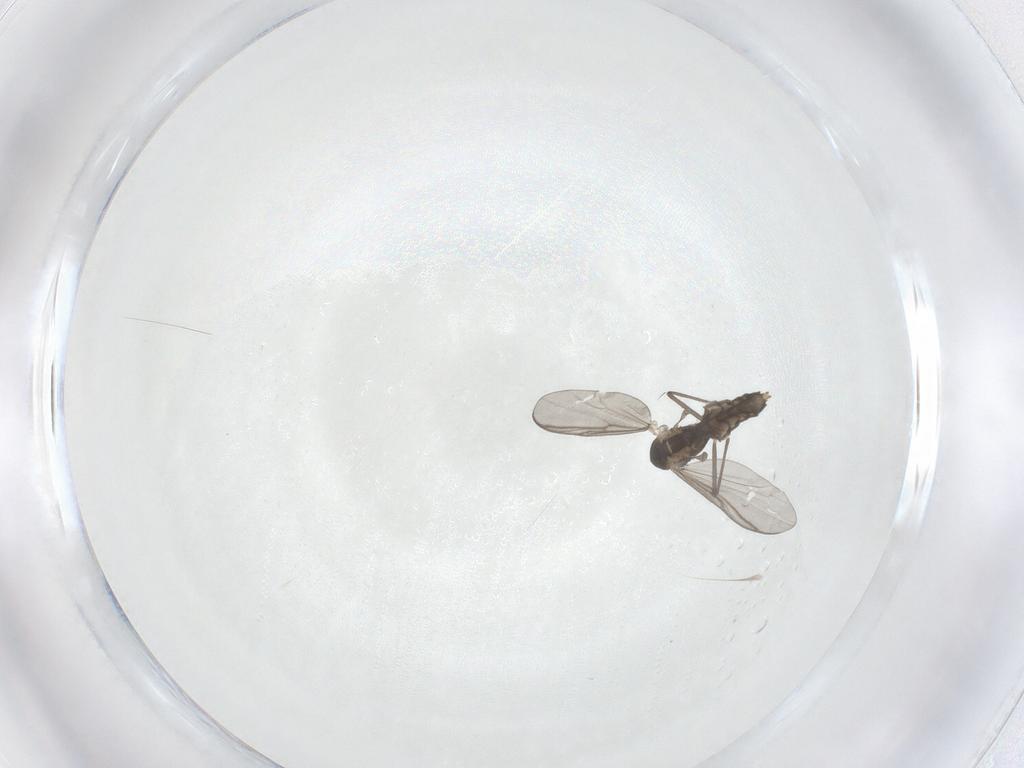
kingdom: Animalia
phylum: Arthropoda
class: Insecta
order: Diptera
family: Chironomidae
